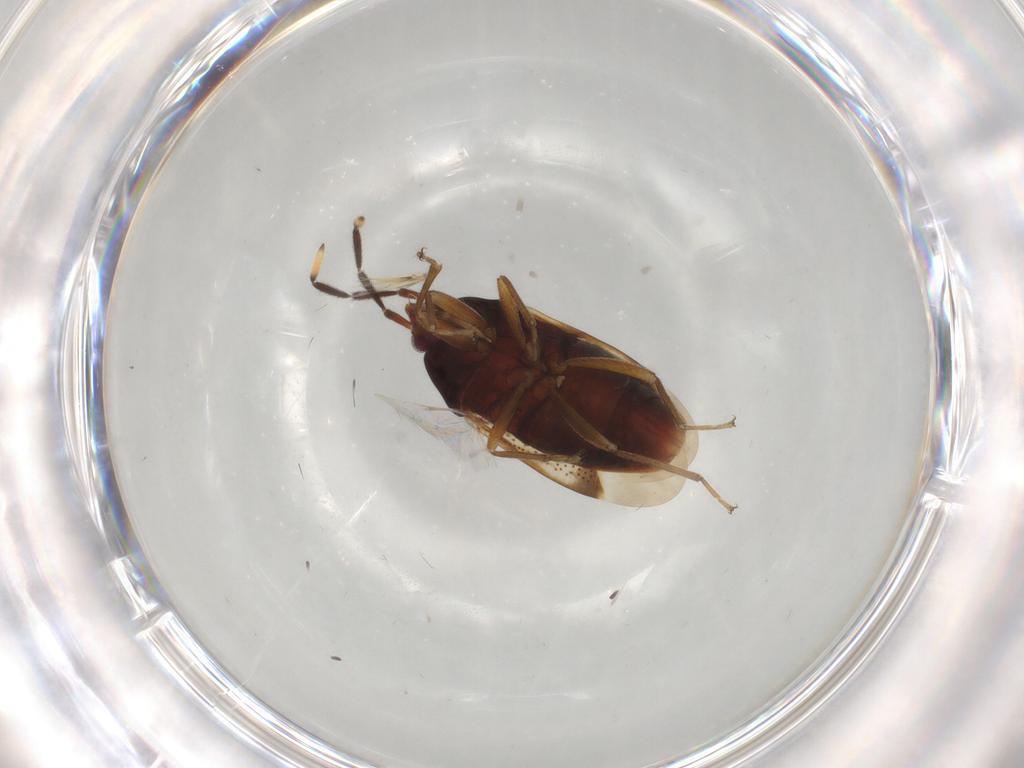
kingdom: Animalia
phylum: Arthropoda
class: Insecta
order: Hemiptera
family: Rhyparochromidae
